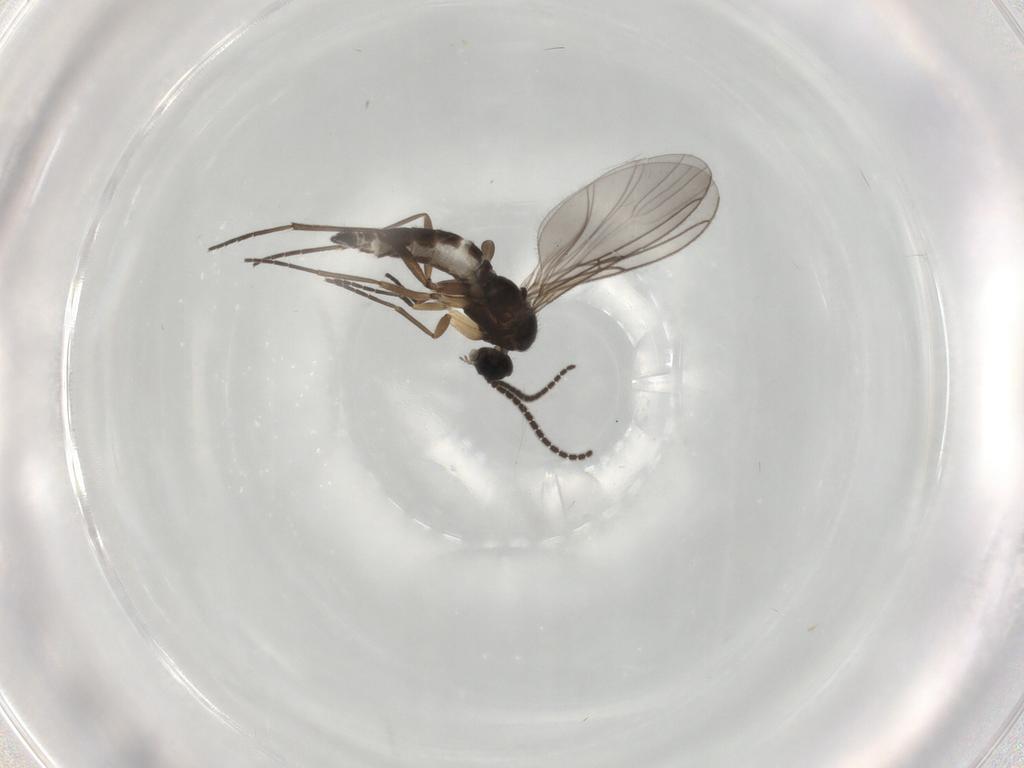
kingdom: Animalia
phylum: Arthropoda
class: Insecta
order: Diptera
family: Sciaridae
